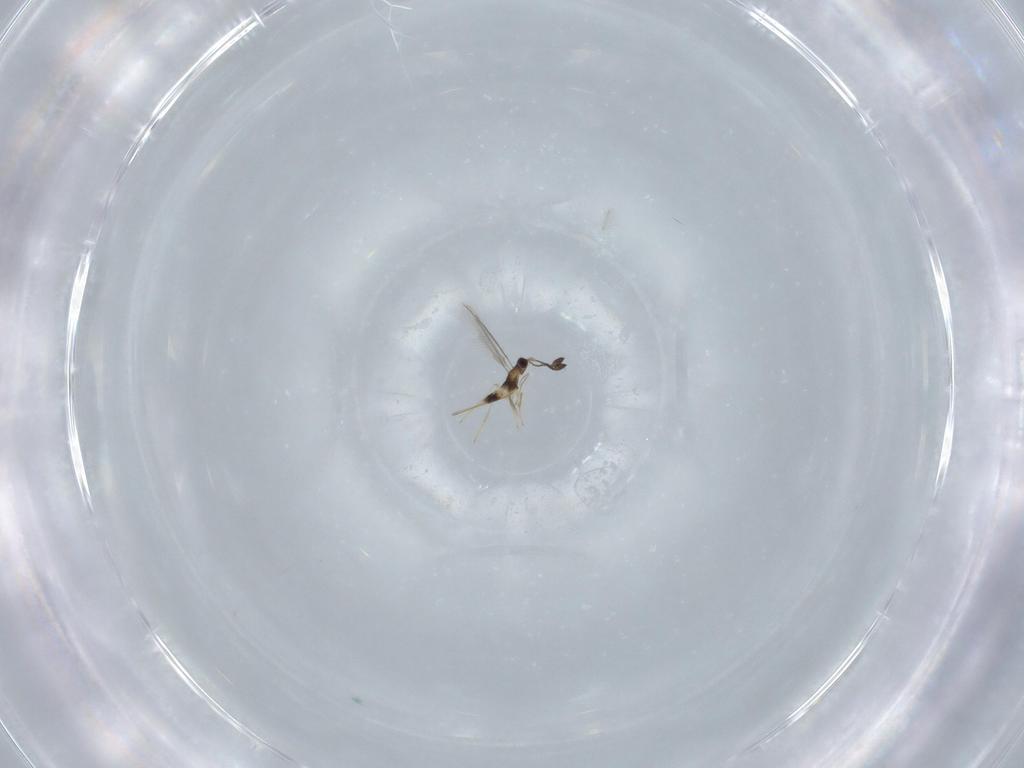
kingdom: Animalia
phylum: Arthropoda
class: Insecta
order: Hymenoptera
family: Mymaridae
